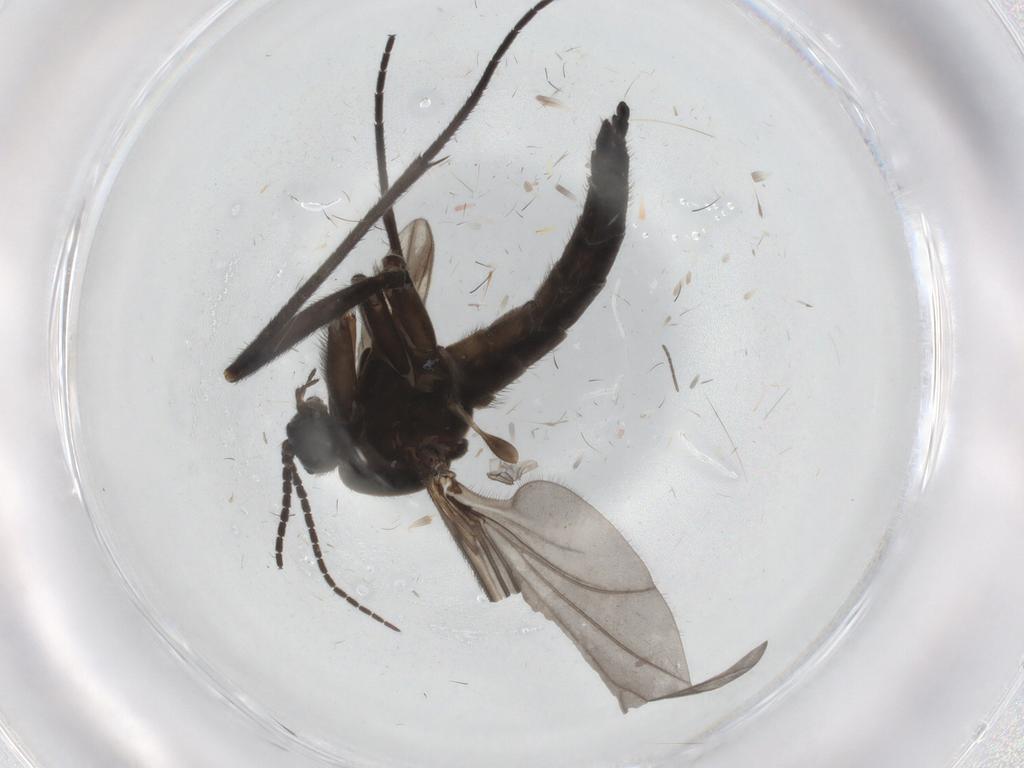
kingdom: Animalia
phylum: Arthropoda
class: Insecta
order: Diptera
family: Sciaridae
